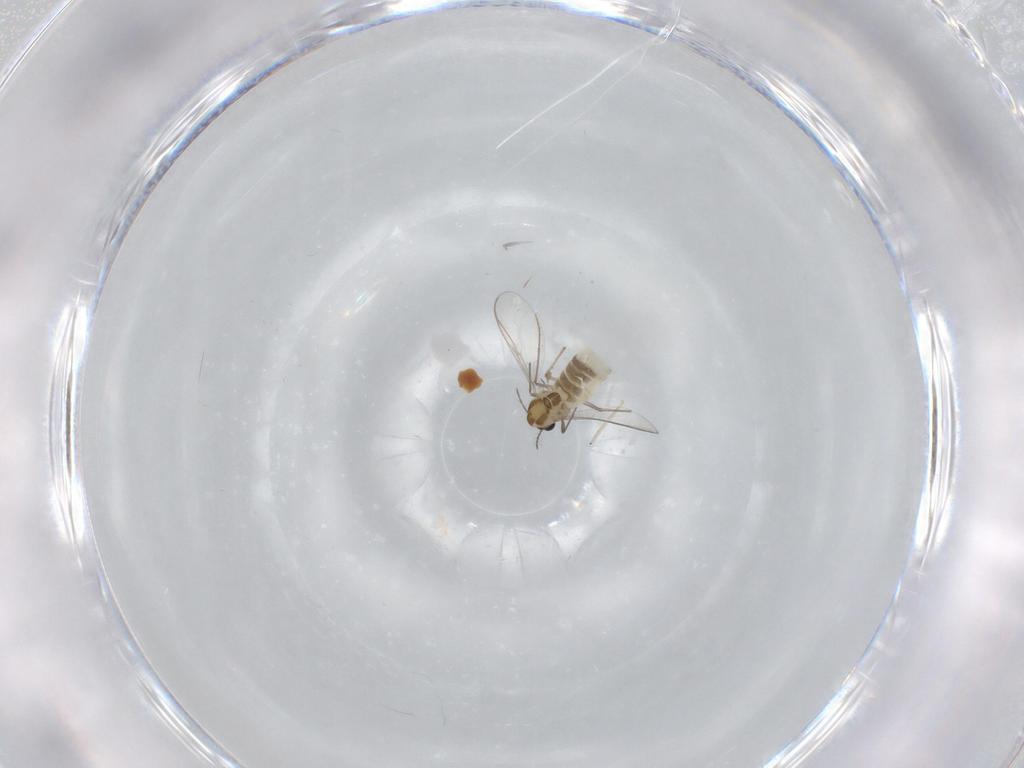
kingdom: Animalia
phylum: Arthropoda
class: Insecta
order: Diptera
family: Chironomidae
